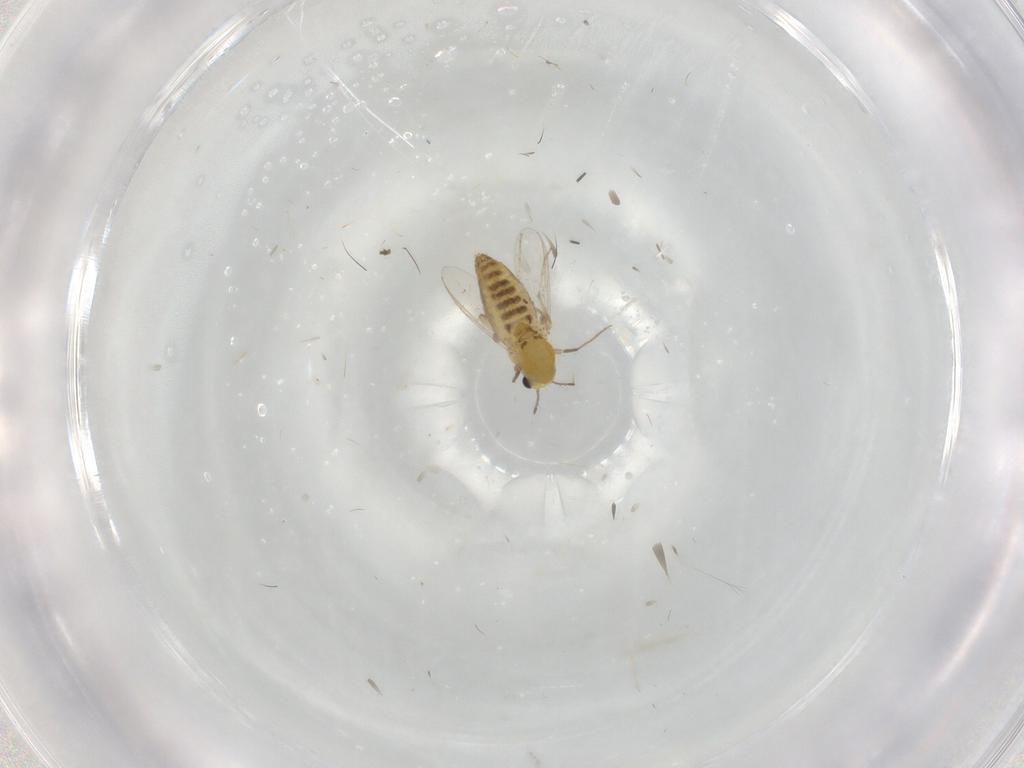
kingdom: Animalia
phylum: Arthropoda
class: Insecta
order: Diptera
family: Chironomidae
